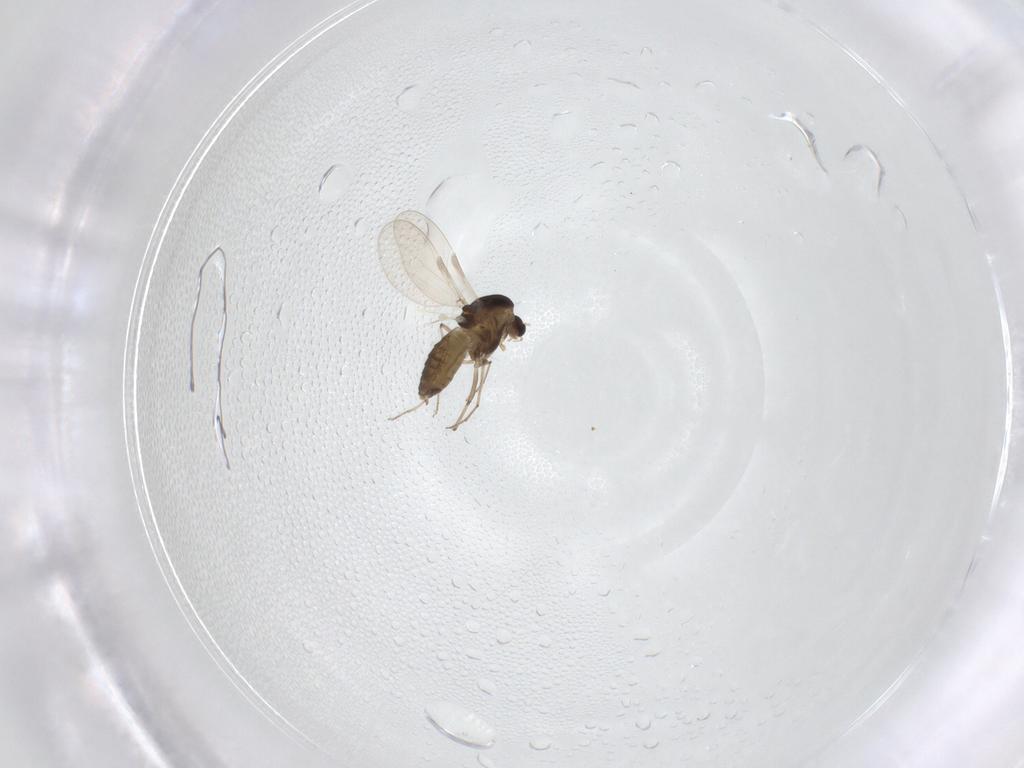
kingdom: Animalia
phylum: Arthropoda
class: Insecta
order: Diptera
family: Chironomidae
